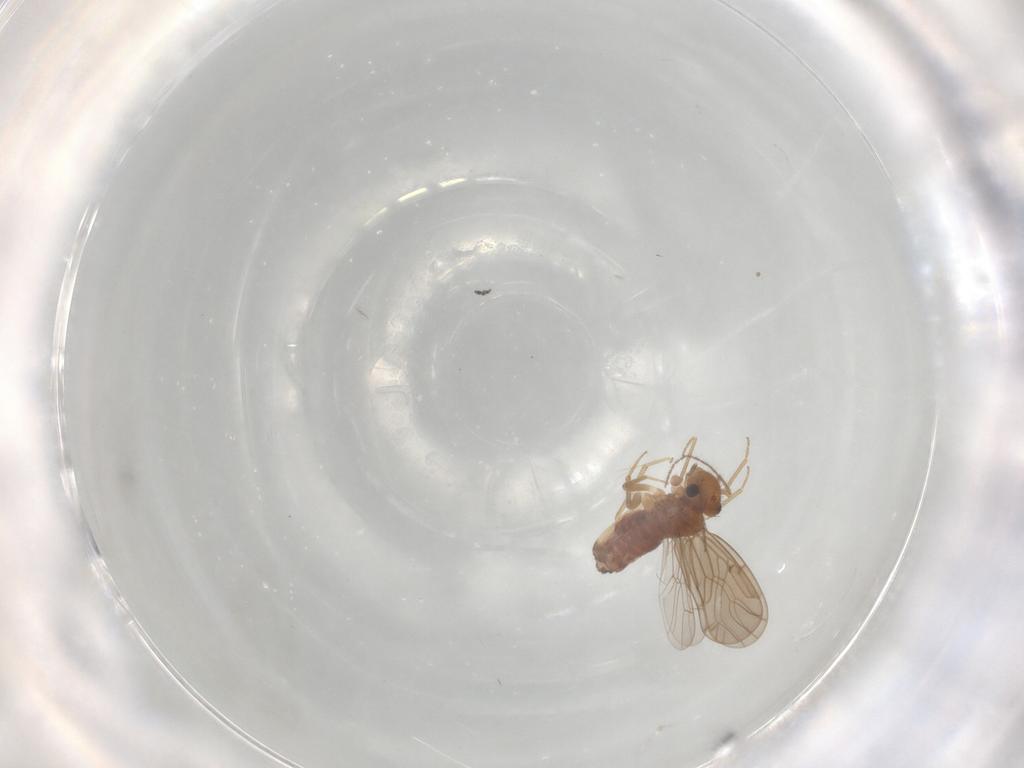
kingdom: Animalia
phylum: Arthropoda
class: Insecta
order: Psocodea
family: Ectopsocidae
